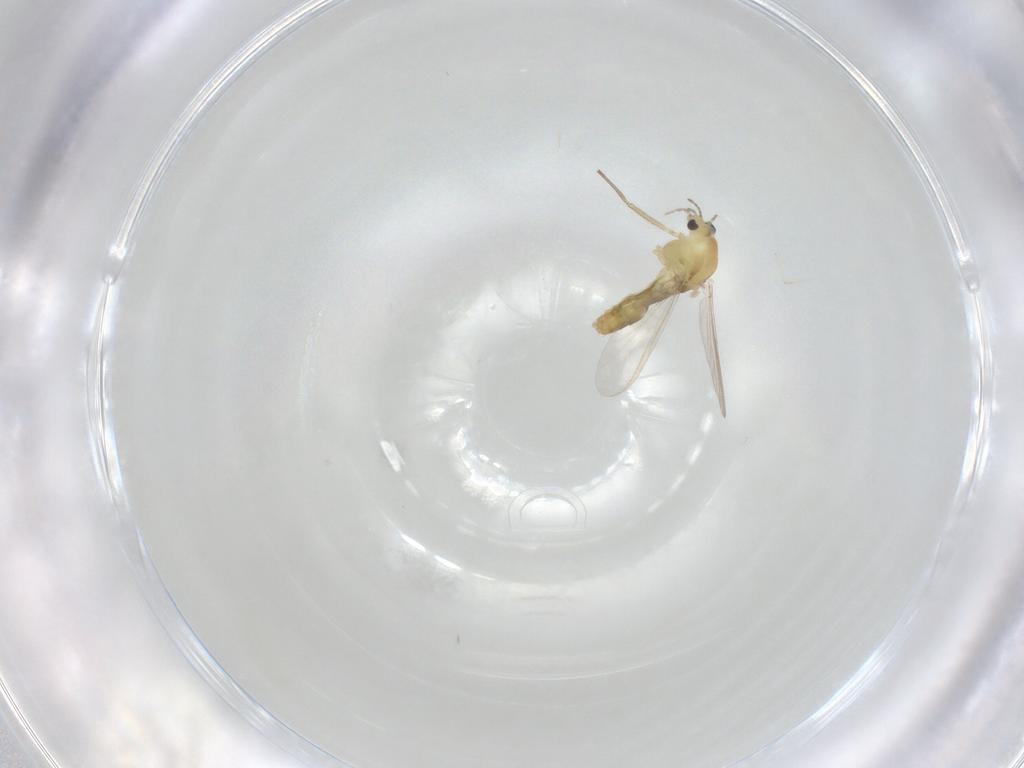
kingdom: Animalia
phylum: Arthropoda
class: Insecta
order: Diptera
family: Chironomidae
